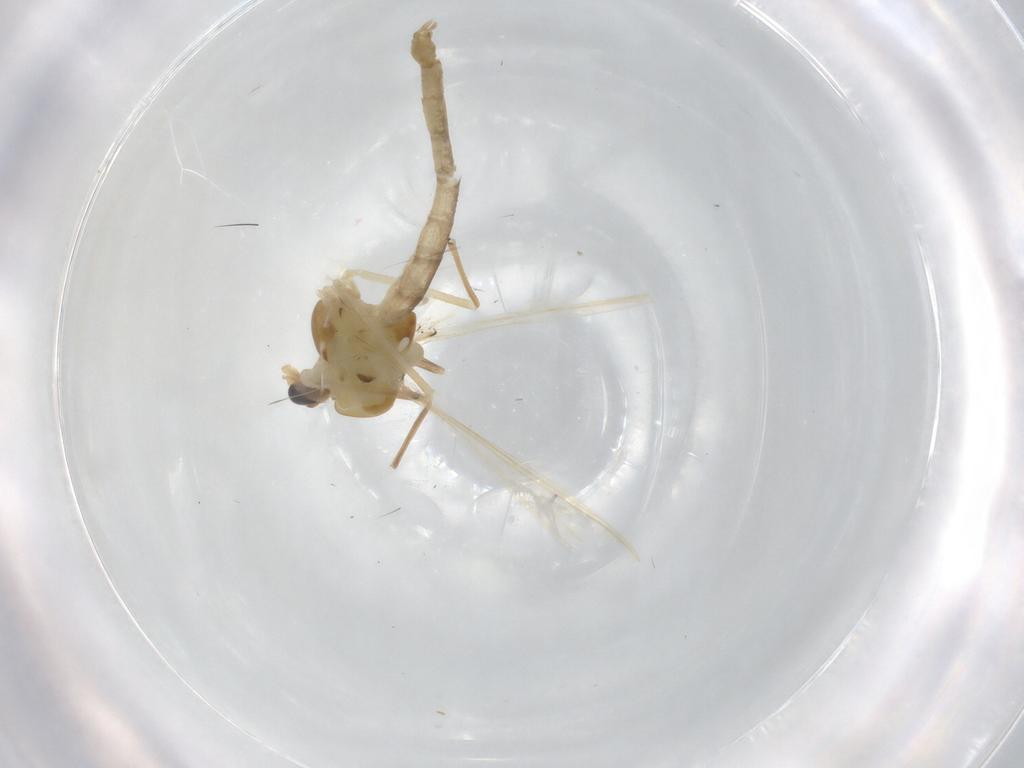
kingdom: Animalia
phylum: Arthropoda
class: Insecta
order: Diptera
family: Chironomidae
